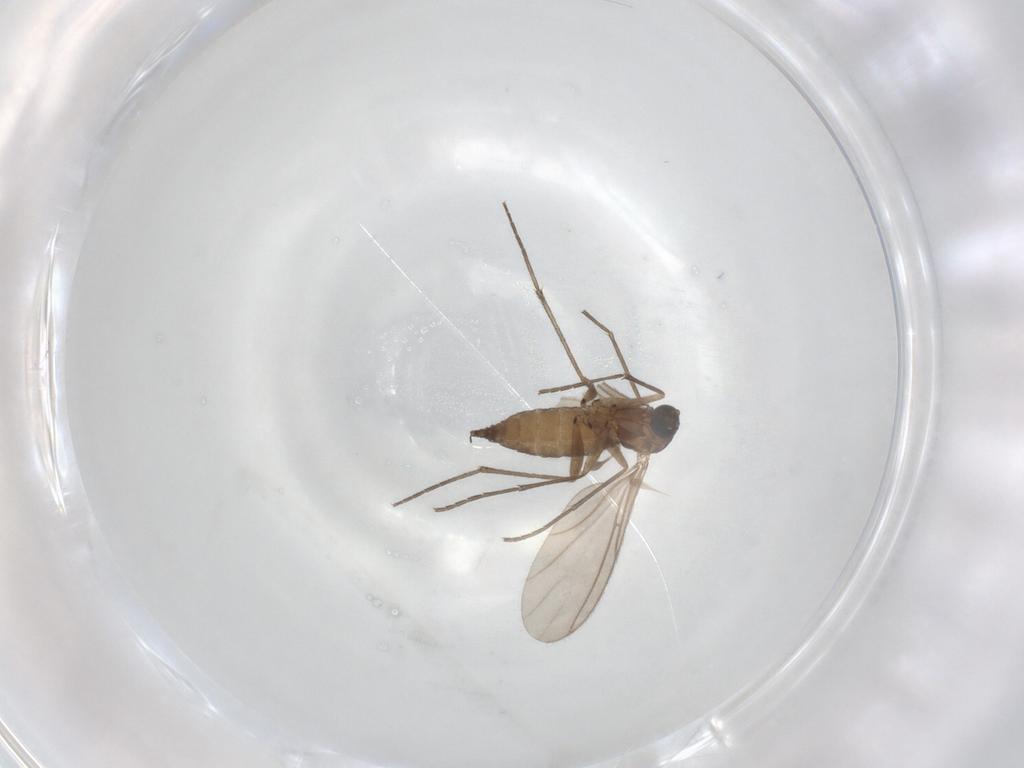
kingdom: Animalia
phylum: Arthropoda
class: Insecta
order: Diptera
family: Sciaridae
